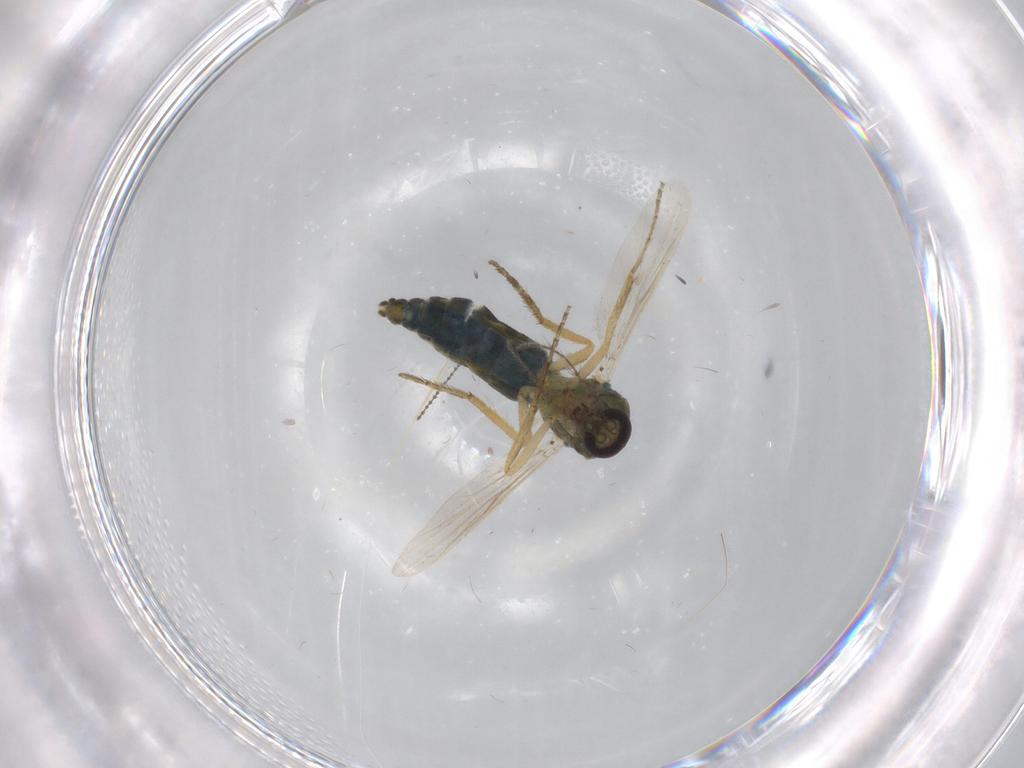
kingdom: Animalia
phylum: Arthropoda
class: Insecta
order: Diptera
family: Ceratopogonidae
